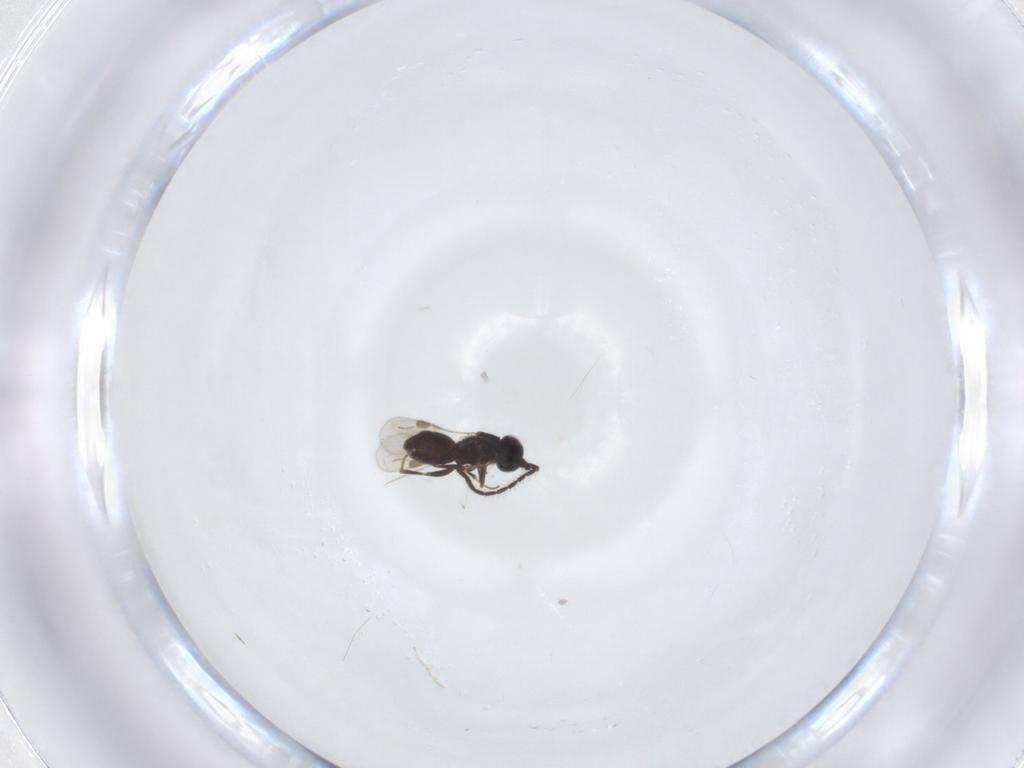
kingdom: Animalia
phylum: Arthropoda
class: Insecta
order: Hymenoptera
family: Megaspilidae
